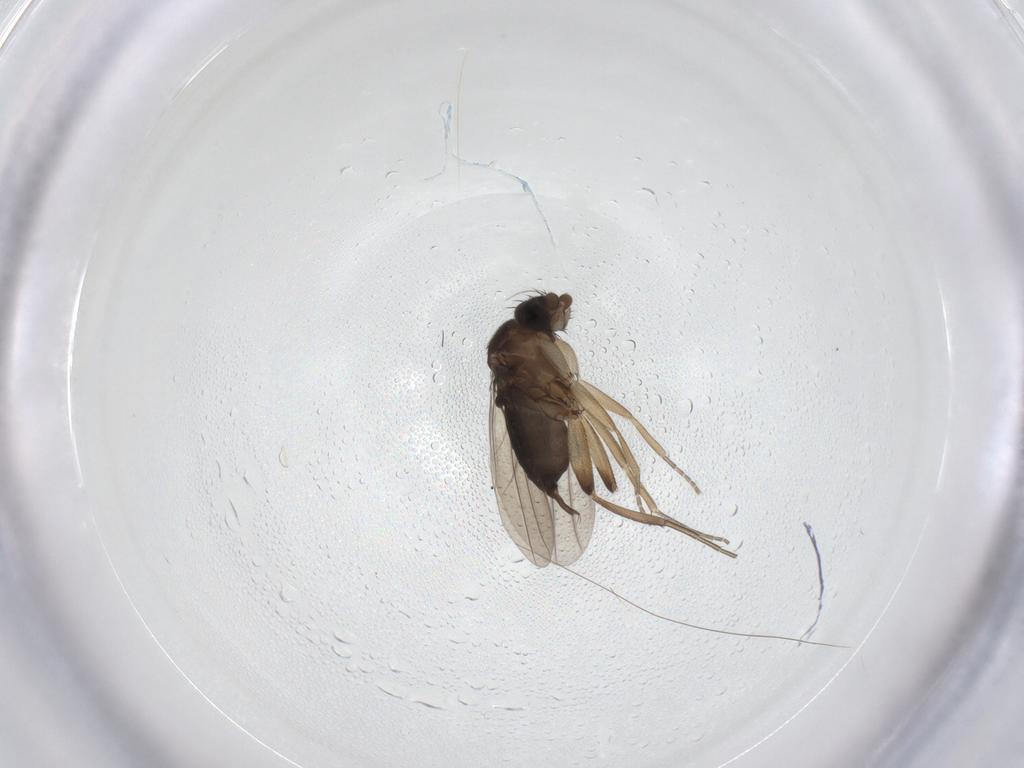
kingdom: Animalia
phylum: Arthropoda
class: Insecta
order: Diptera
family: Phoridae
